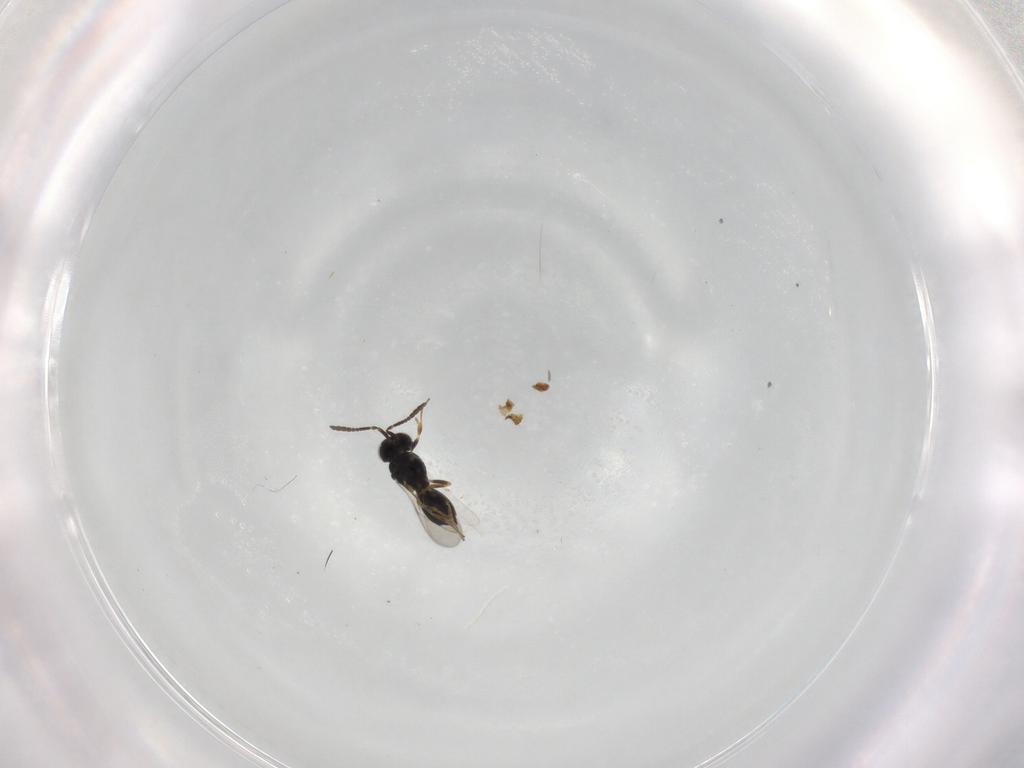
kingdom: Animalia
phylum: Arthropoda
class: Insecta
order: Hymenoptera
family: Scelionidae
